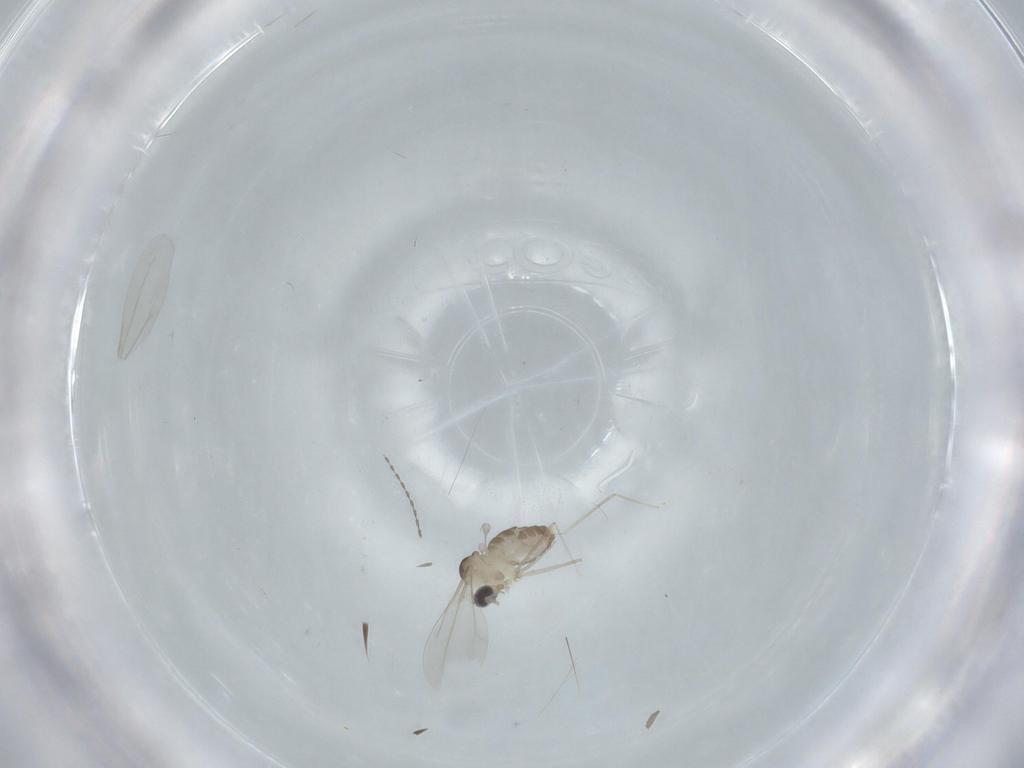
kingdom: Animalia
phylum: Arthropoda
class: Insecta
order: Diptera
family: Cecidomyiidae
